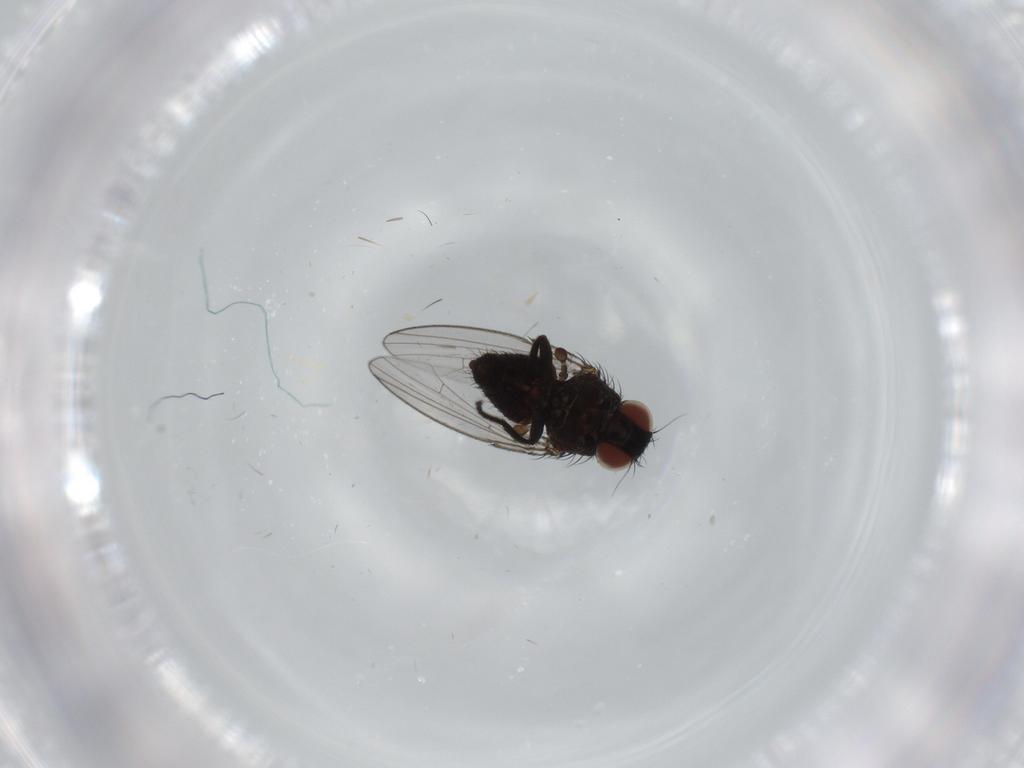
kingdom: Animalia
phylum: Arthropoda
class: Insecta
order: Diptera
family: Milichiidae
